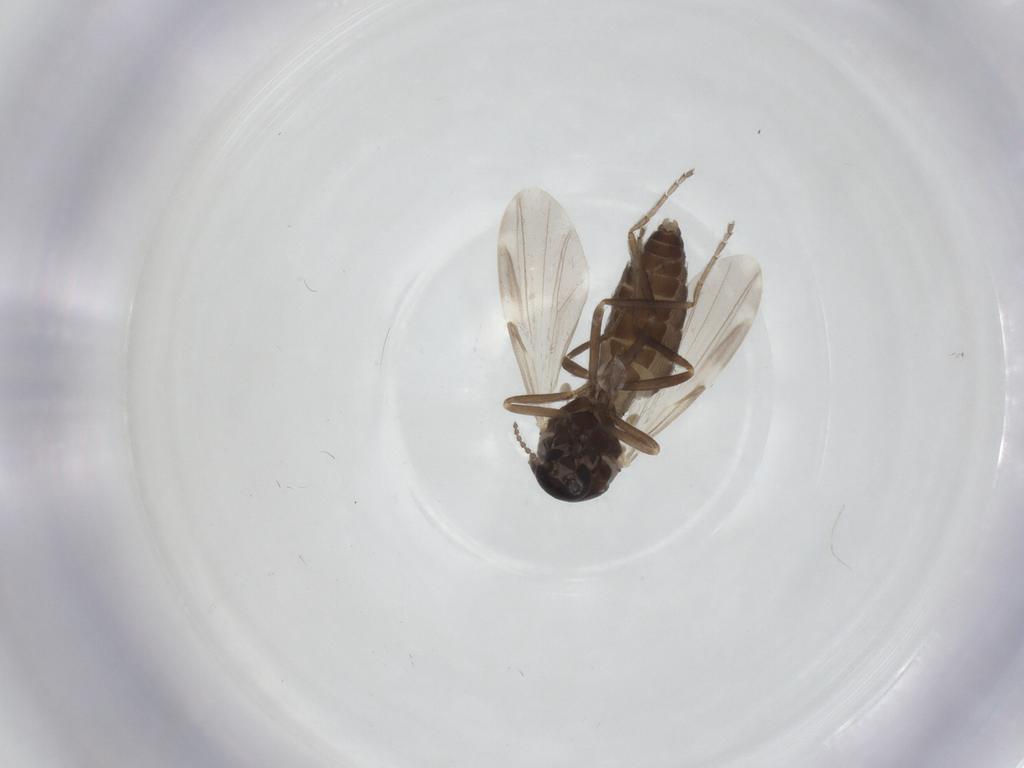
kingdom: Animalia
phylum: Arthropoda
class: Insecta
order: Diptera
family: Ceratopogonidae
